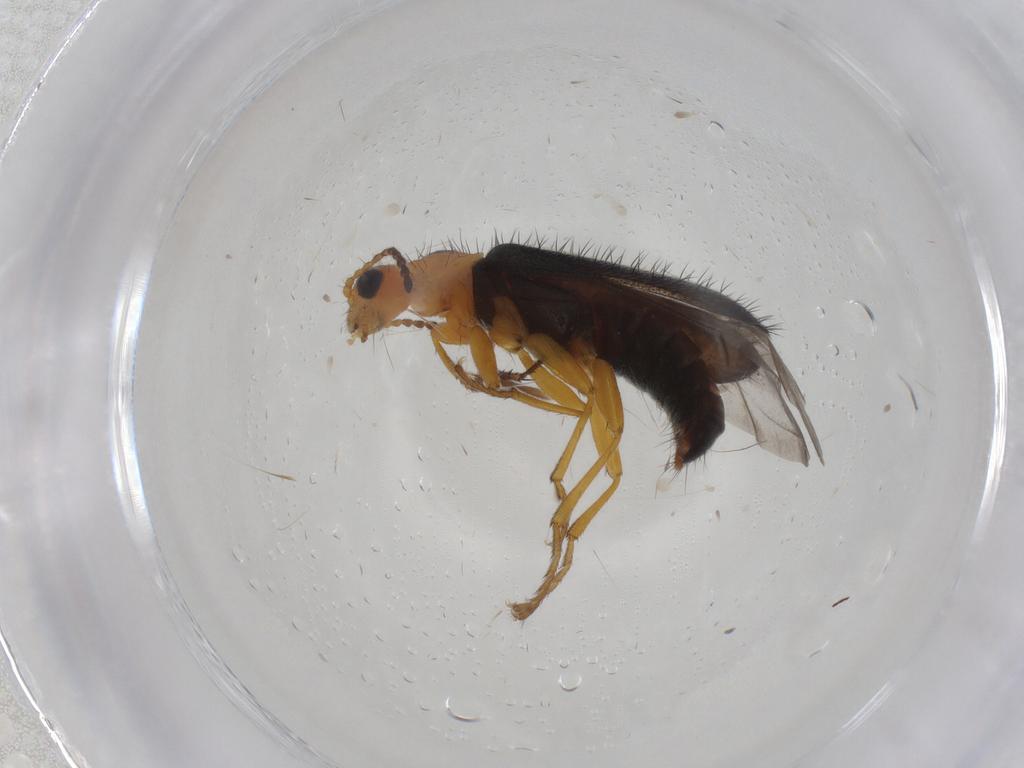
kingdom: Animalia
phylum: Arthropoda
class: Insecta
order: Coleoptera
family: Melyridae
